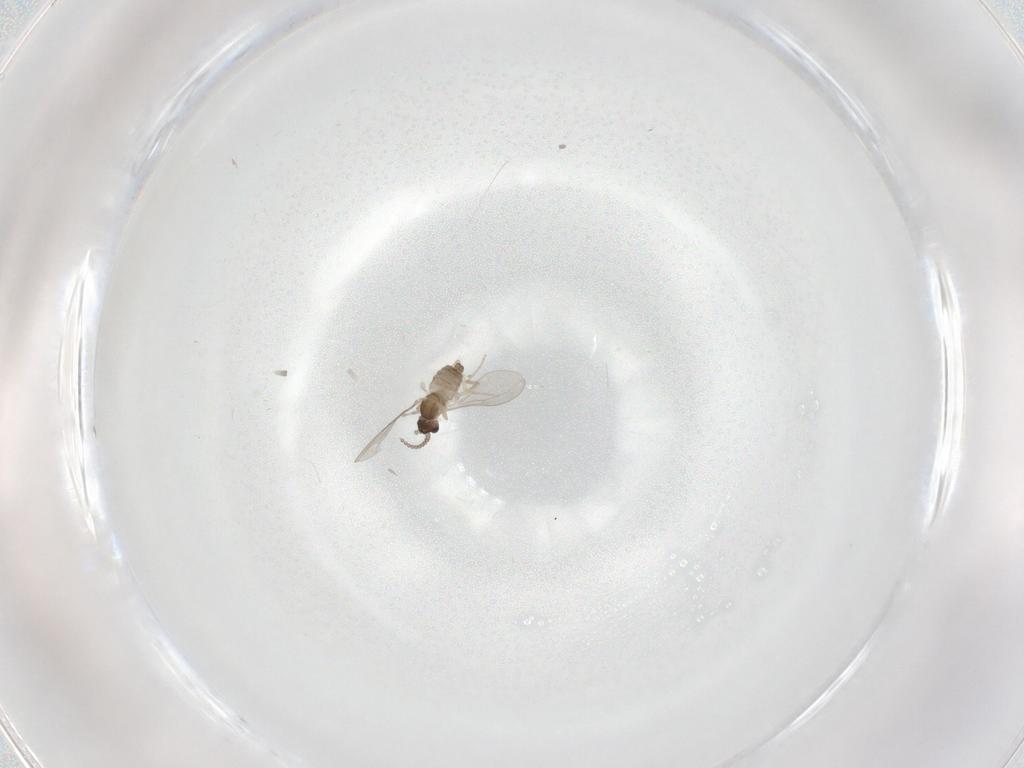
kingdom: Animalia
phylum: Arthropoda
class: Insecta
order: Diptera
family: Cecidomyiidae
